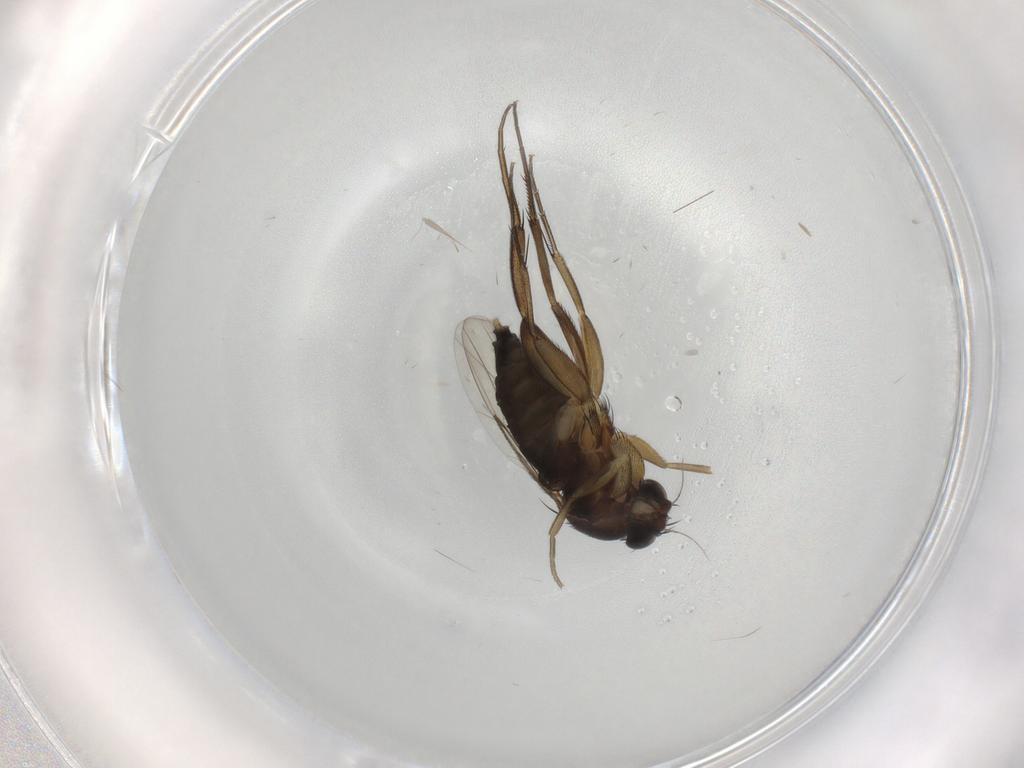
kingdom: Animalia
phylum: Arthropoda
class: Insecta
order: Diptera
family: Phoridae
